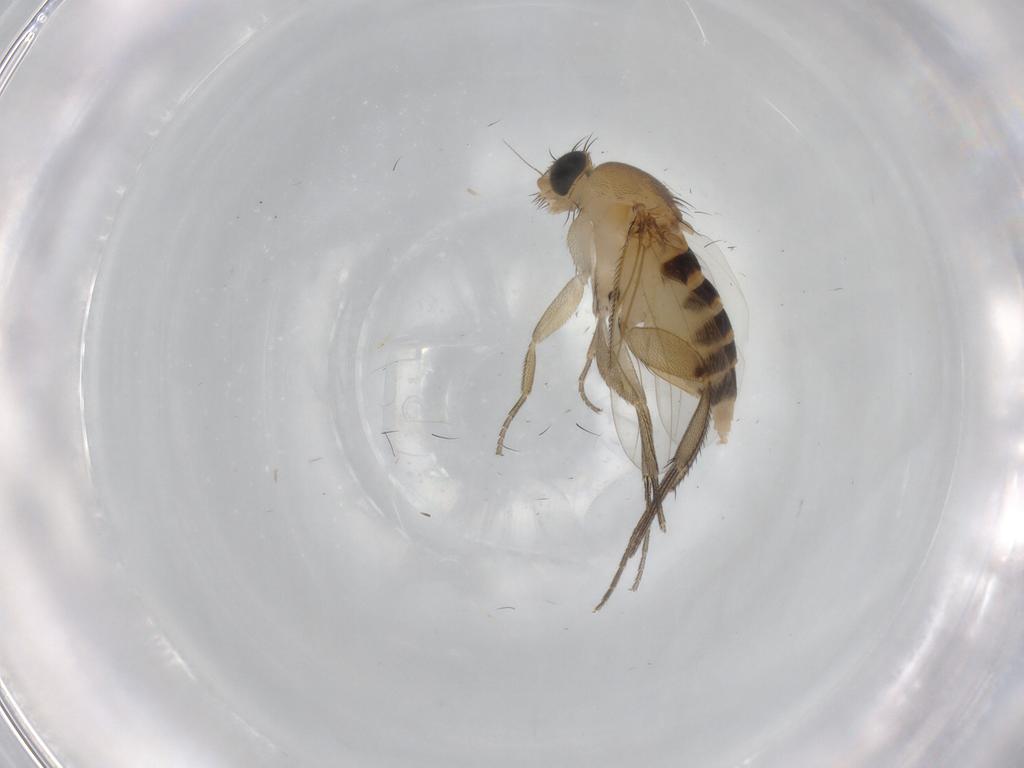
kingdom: Animalia
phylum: Arthropoda
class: Insecta
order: Diptera
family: Phoridae
